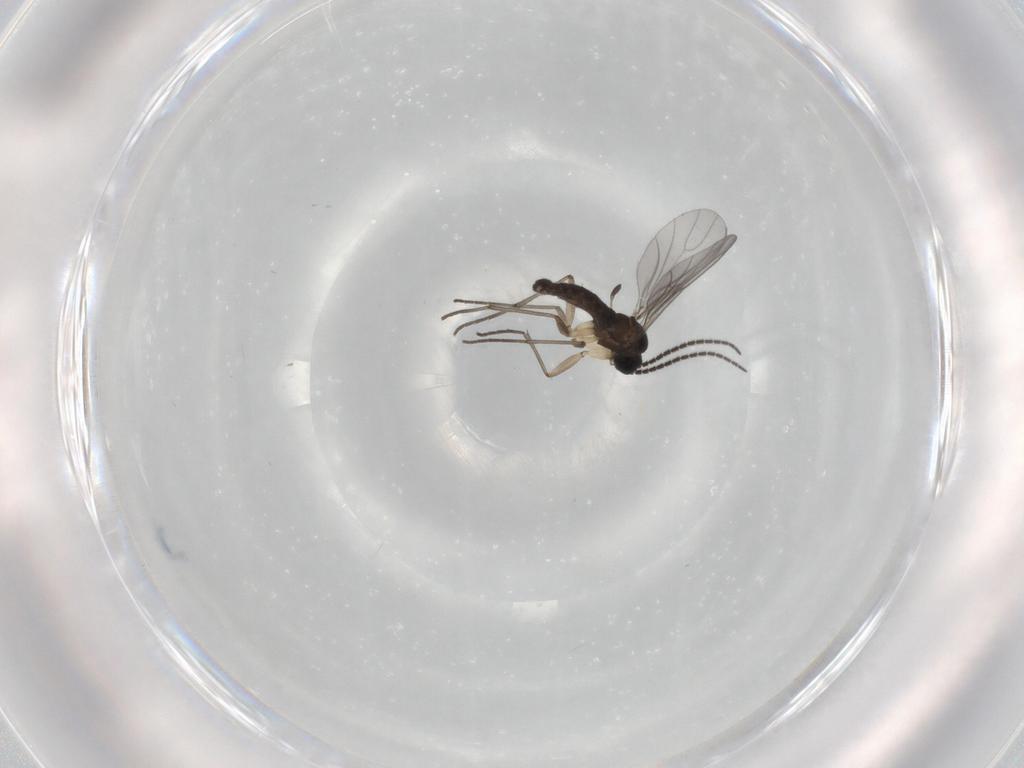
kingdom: Animalia
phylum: Arthropoda
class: Insecta
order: Diptera
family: Sciaridae
